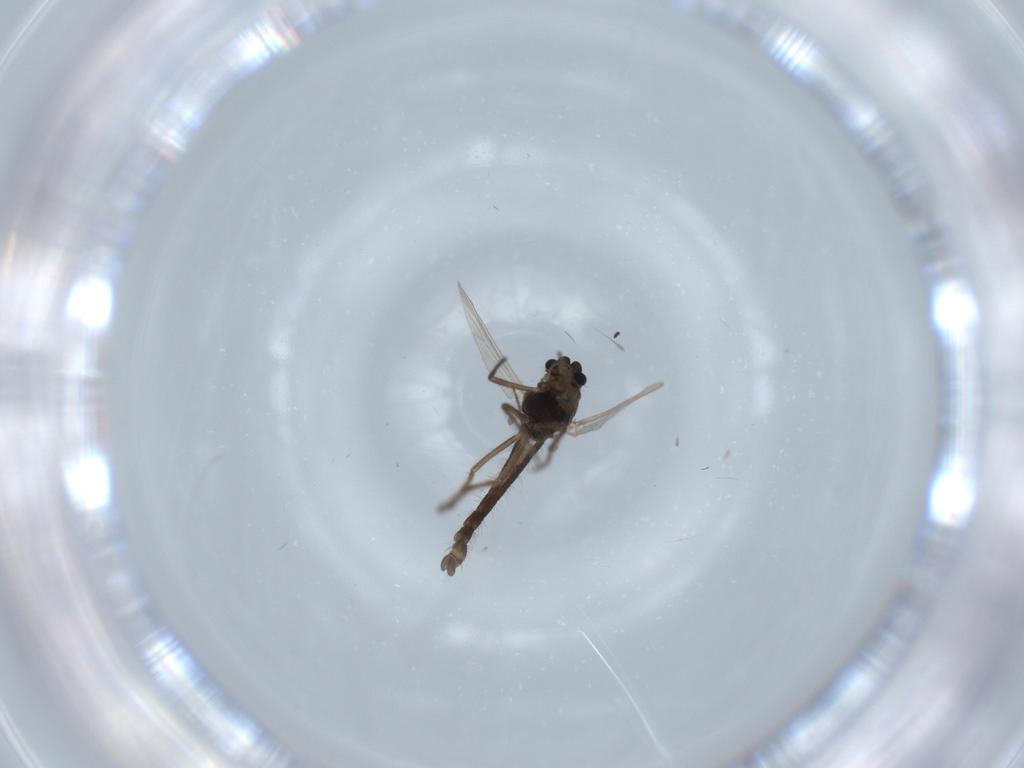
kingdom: Animalia
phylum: Arthropoda
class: Insecta
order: Diptera
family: Chironomidae
